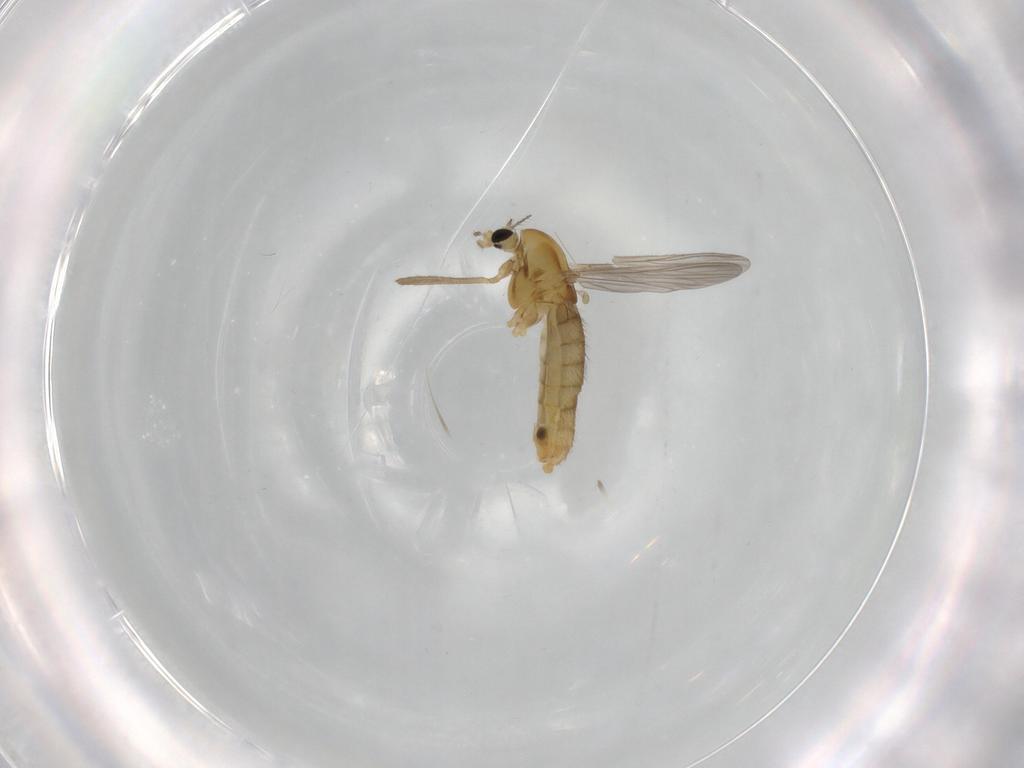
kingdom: Animalia
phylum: Arthropoda
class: Insecta
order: Diptera
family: Chironomidae
